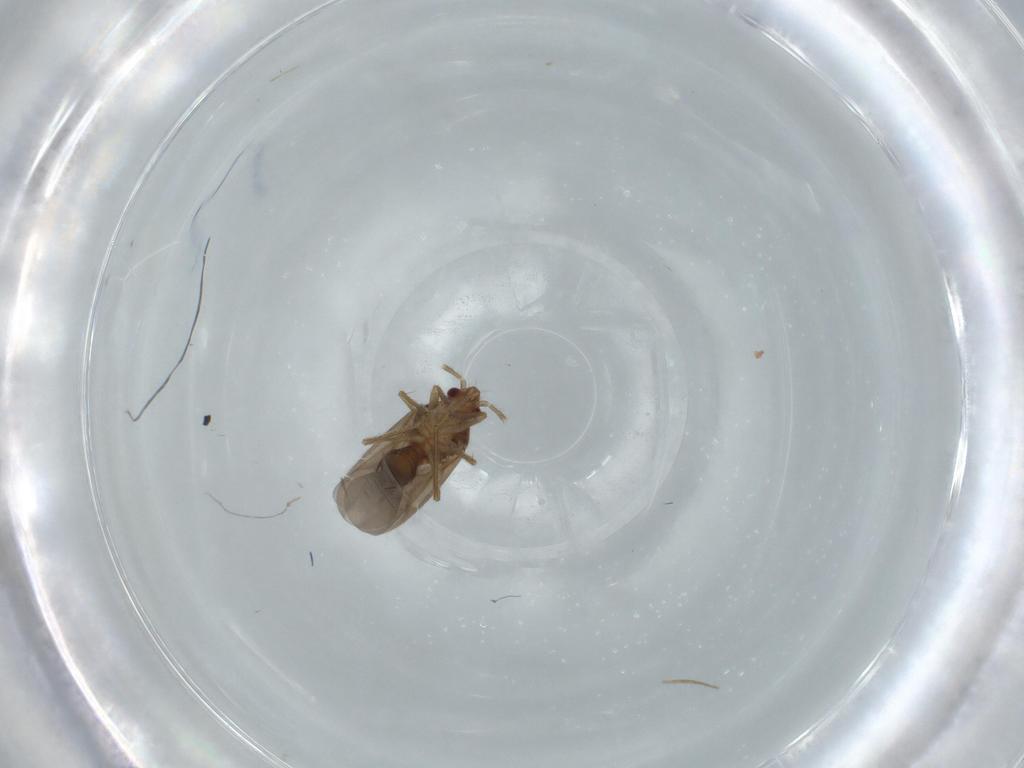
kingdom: Animalia
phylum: Arthropoda
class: Insecta
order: Hemiptera
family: Ceratocombidae
